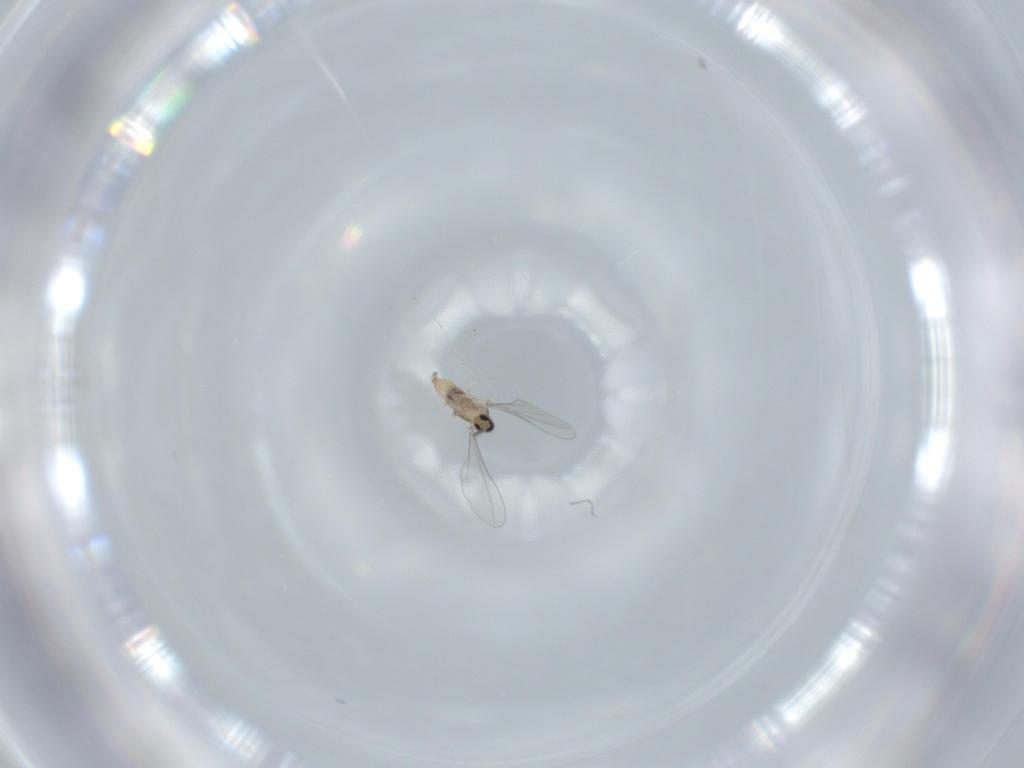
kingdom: Animalia
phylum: Arthropoda
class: Insecta
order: Diptera
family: Cecidomyiidae
